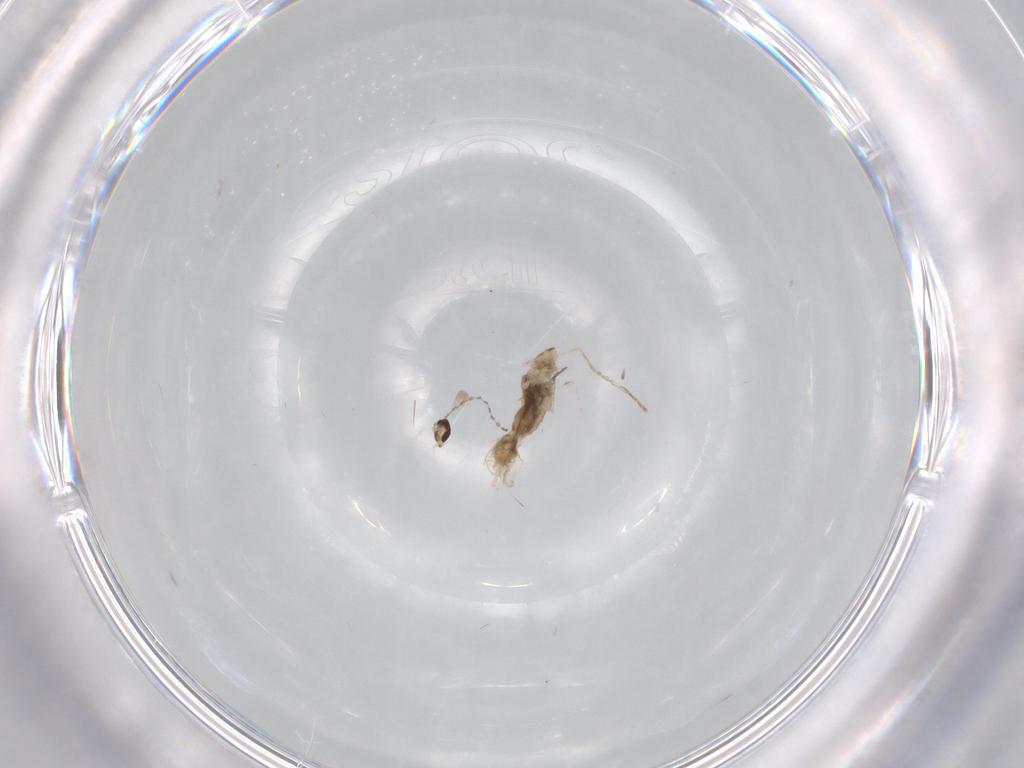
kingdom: Animalia
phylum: Arthropoda
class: Insecta
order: Diptera
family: Cecidomyiidae
